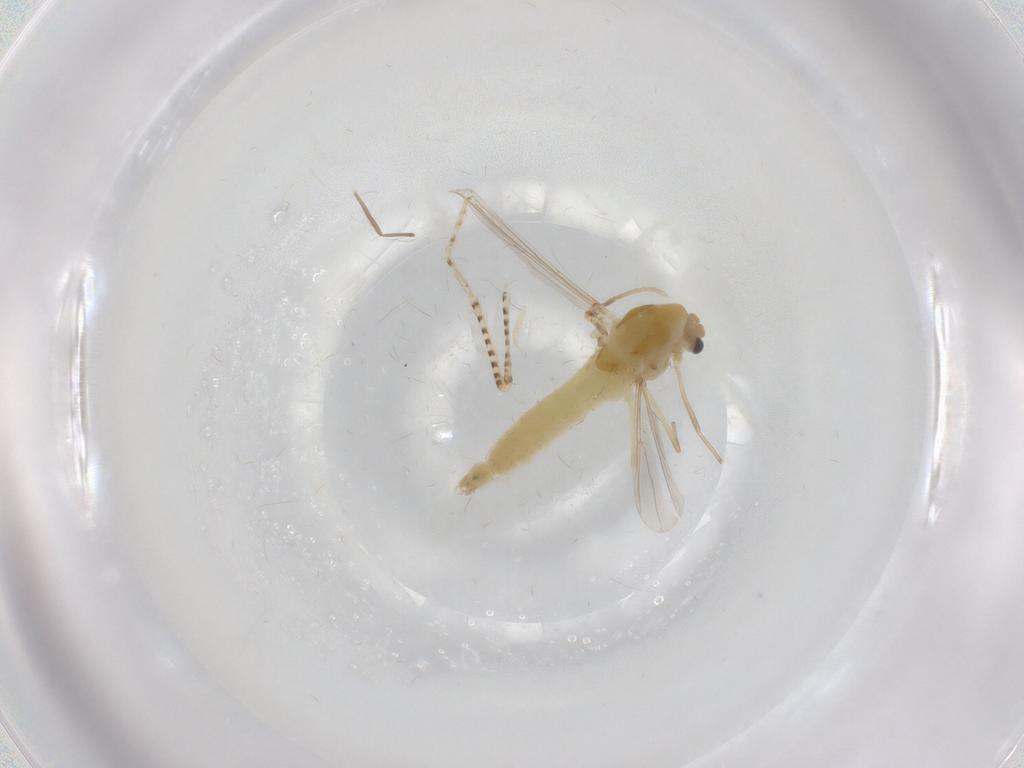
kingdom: Animalia
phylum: Arthropoda
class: Insecta
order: Diptera
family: Chironomidae
